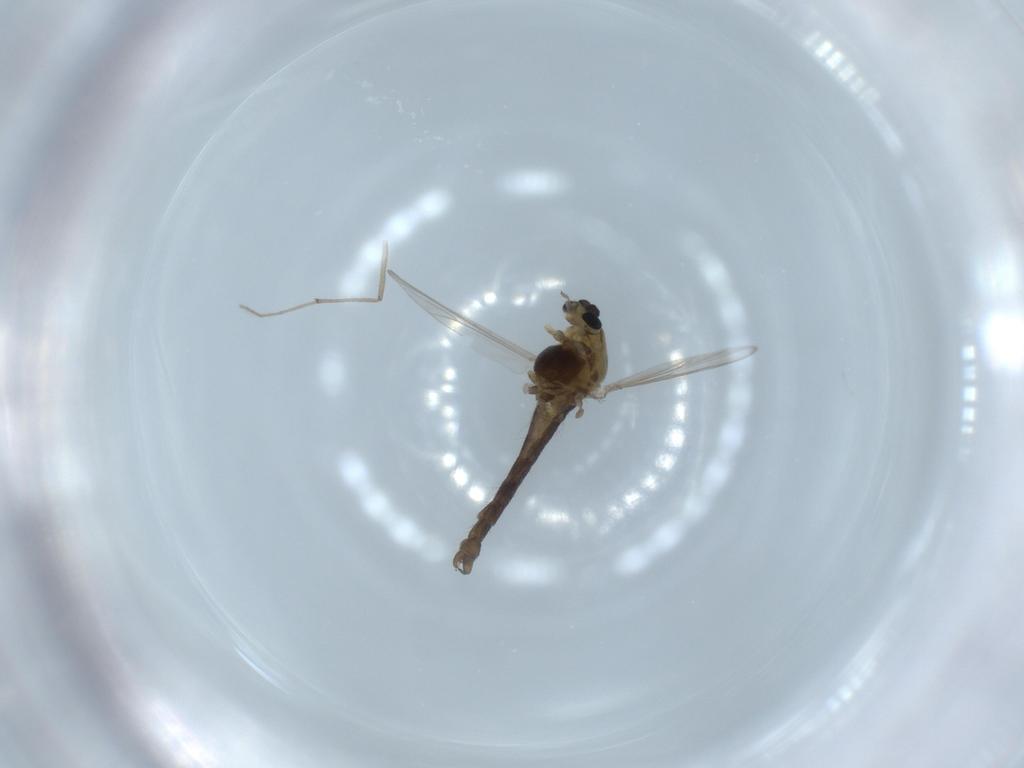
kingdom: Animalia
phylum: Arthropoda
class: Insecta
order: Diptera
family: Chironomidae
